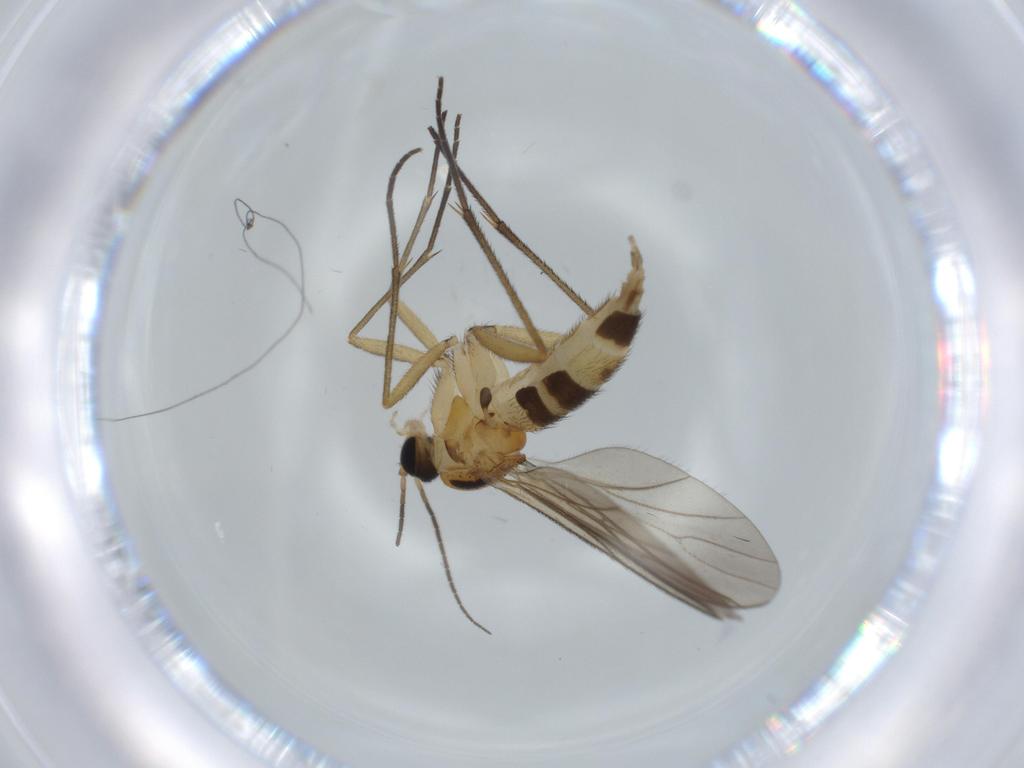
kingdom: Animalia
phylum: Arthropoda
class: Insecta
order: Diptera
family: Sciaridae
